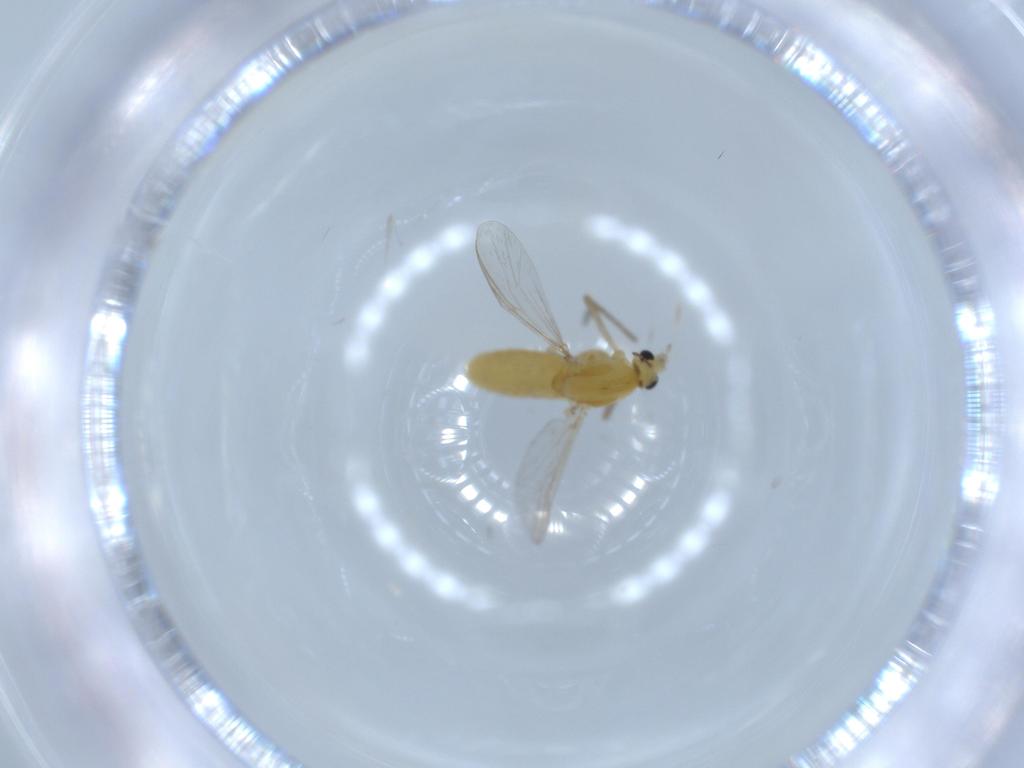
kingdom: Animalia
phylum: Arthropoda
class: Insecta
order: Diptera
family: Chironomidae
